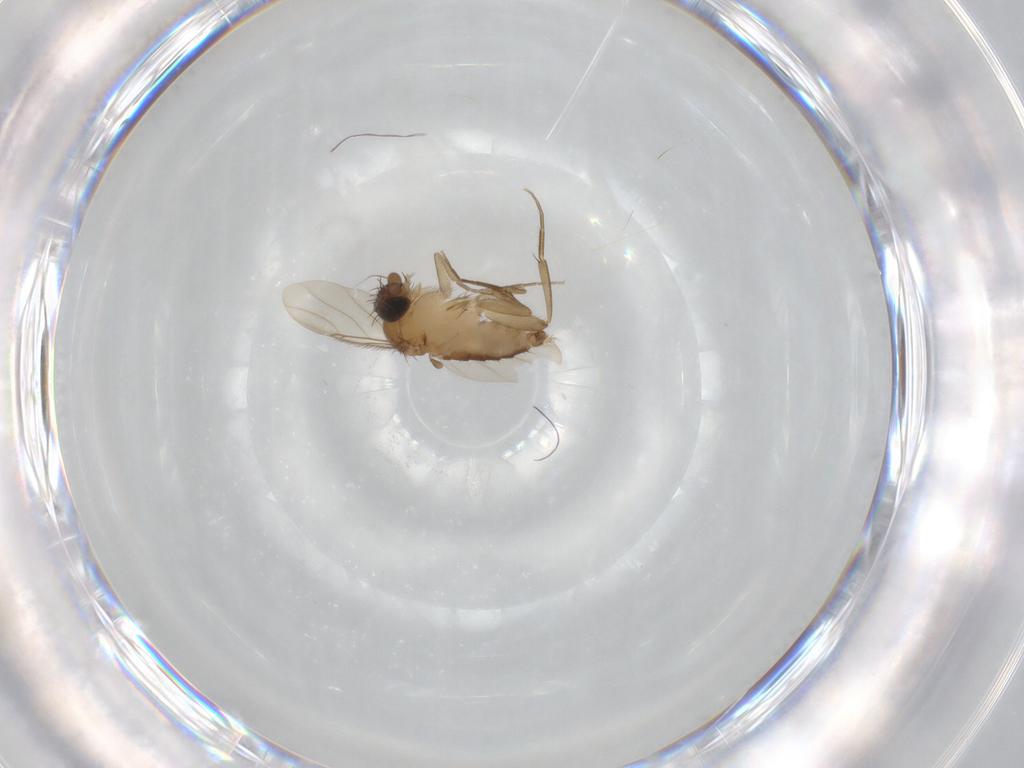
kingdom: Animalia
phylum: Arthropoda
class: Insecta
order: Diptera
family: Phoridae
